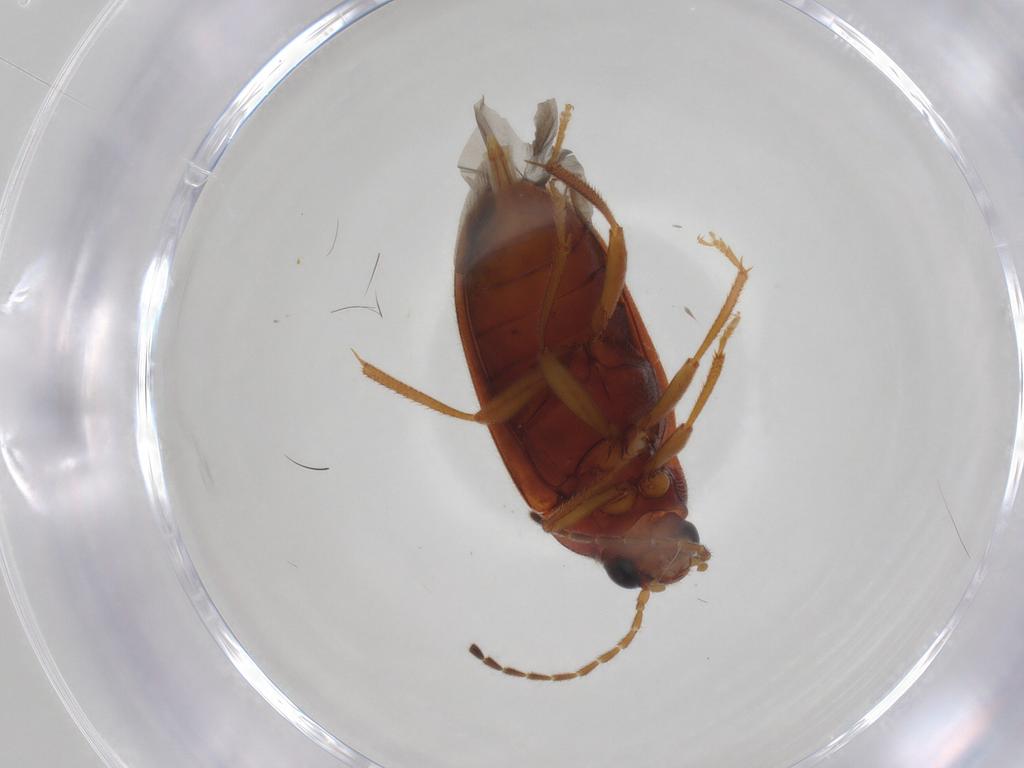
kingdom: Animalia
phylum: Arthropoda
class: Insecta
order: Coleoptera
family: Ptilodactylidae
